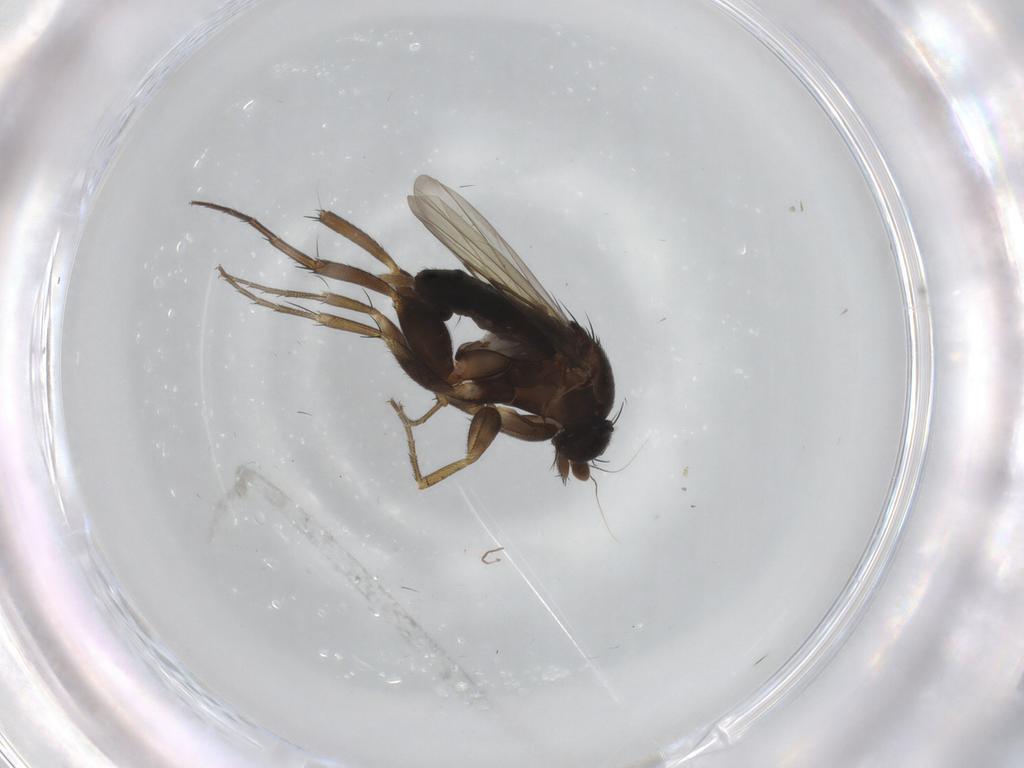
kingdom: Animalia
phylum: Arthropoda
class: Insecta
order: Diptera
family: Phoridae
